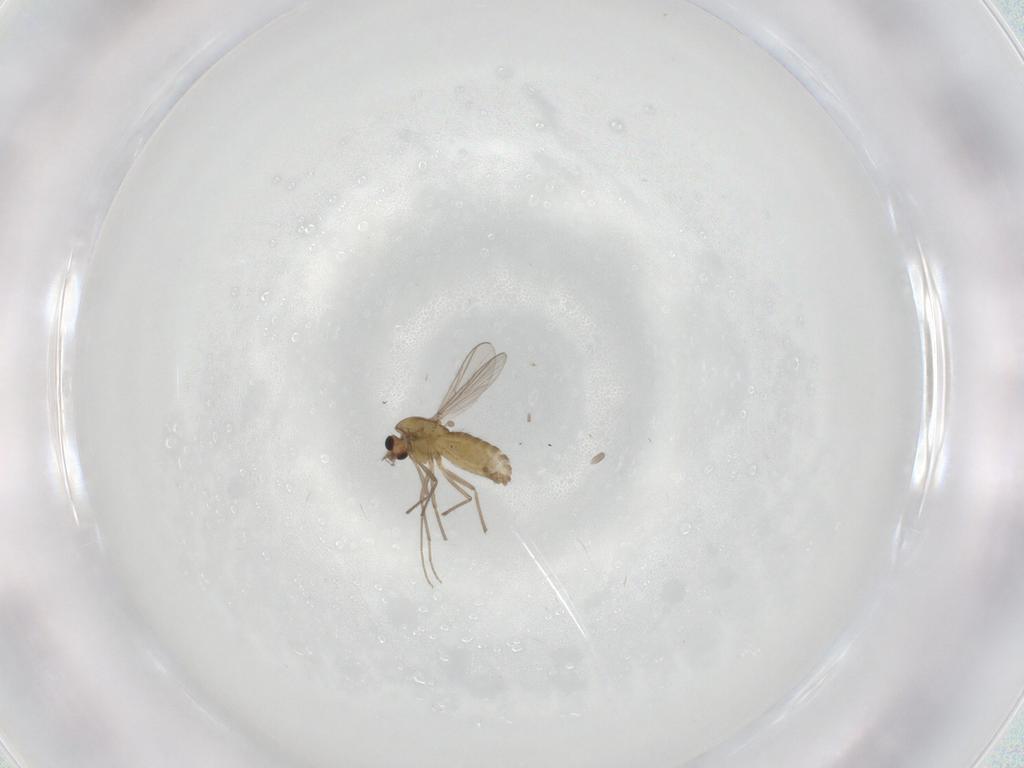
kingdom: Animalia
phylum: Arthropoda
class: Insecta
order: Diptera
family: Chironomidae
